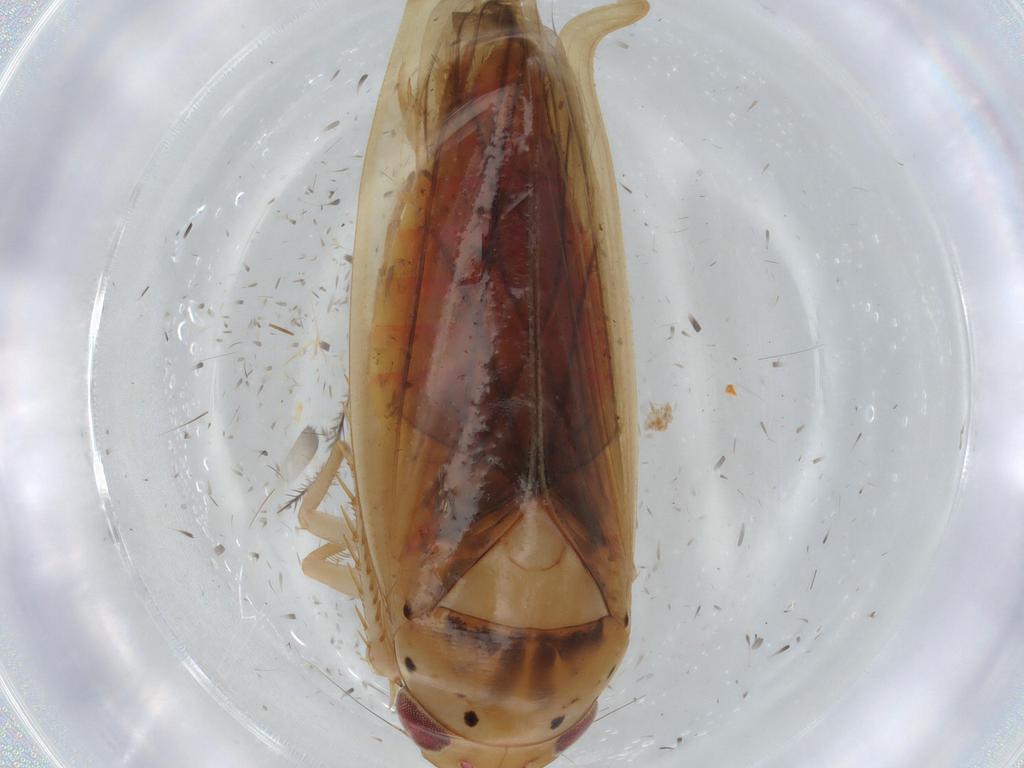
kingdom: Animalia
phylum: Arthropoda
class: Insecta
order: Hemiptera
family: Cicadellidae
